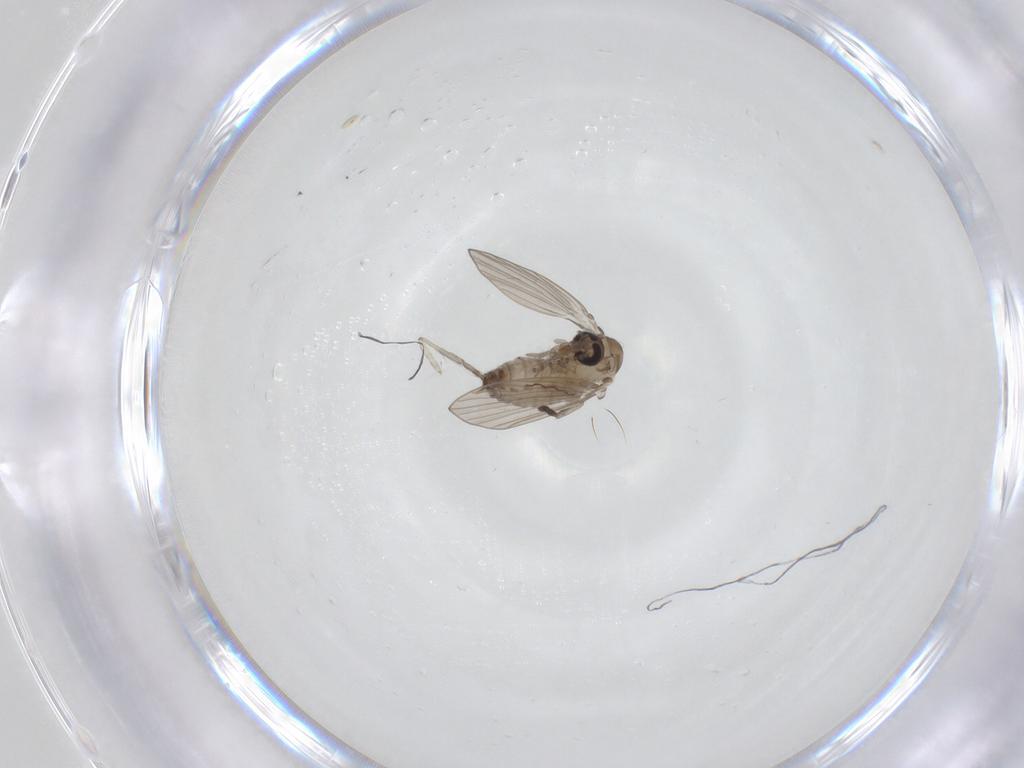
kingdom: Animalia
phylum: Arthropoda
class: Insecta
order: Diptera
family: Psychodidae
